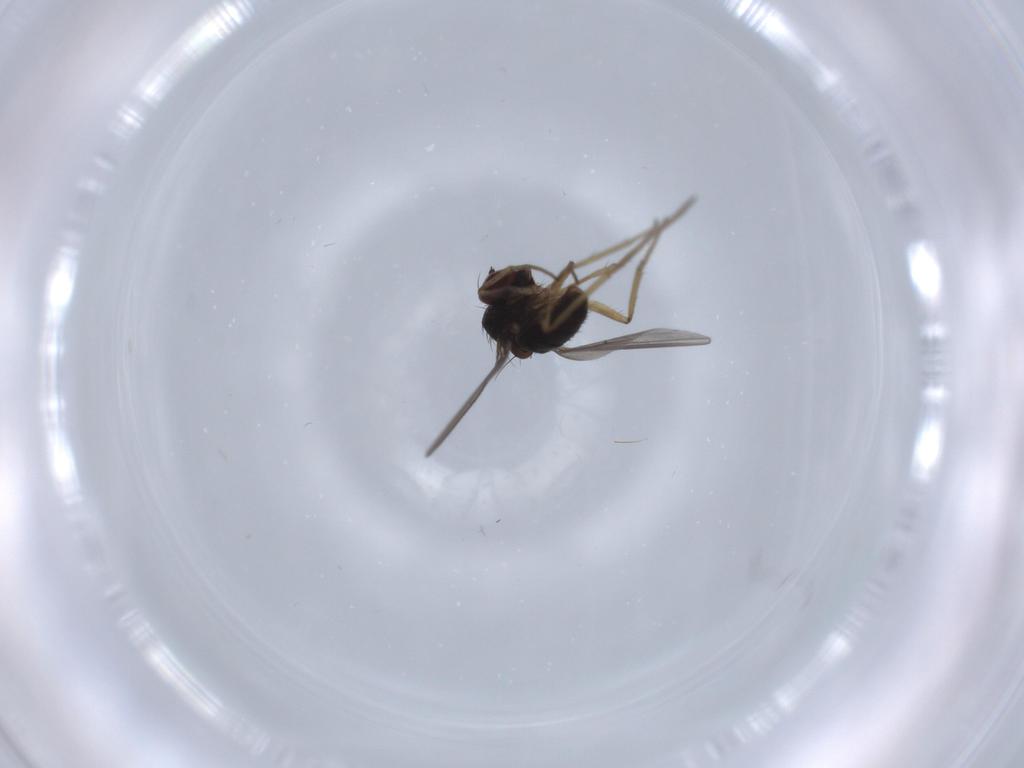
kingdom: Animalia
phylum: Arthropoda
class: Insecta
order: Diptera
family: Dolichopodidae
